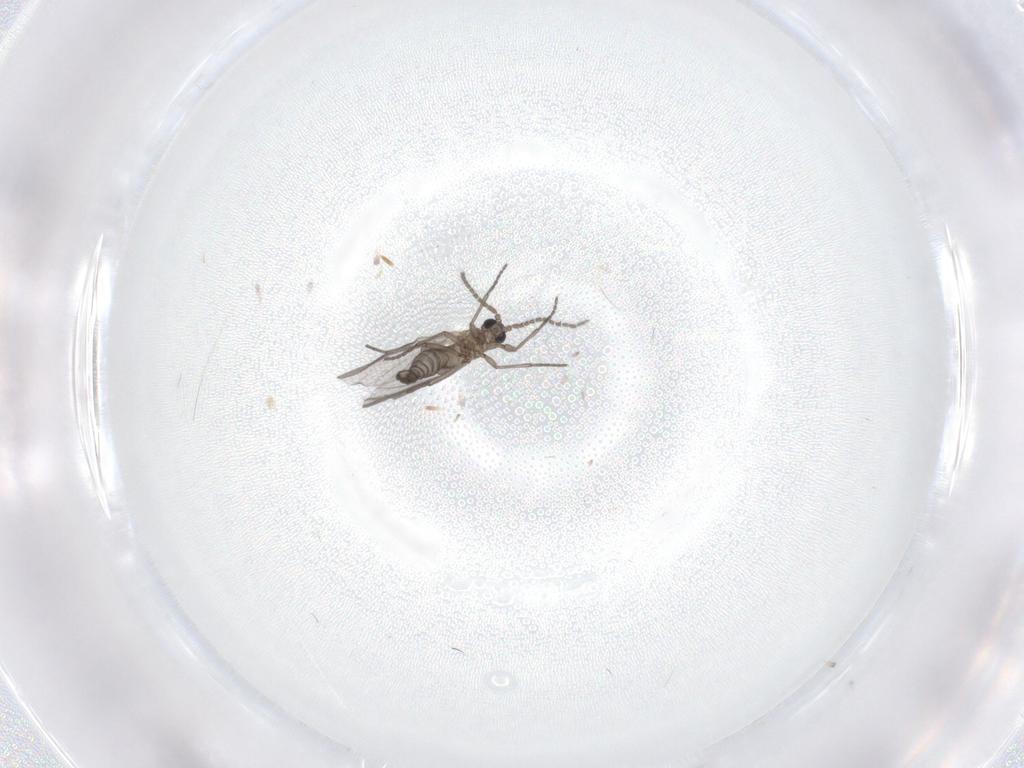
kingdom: Animalia
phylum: Arthropoda
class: Insecta
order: Diptera
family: Sciaridae
